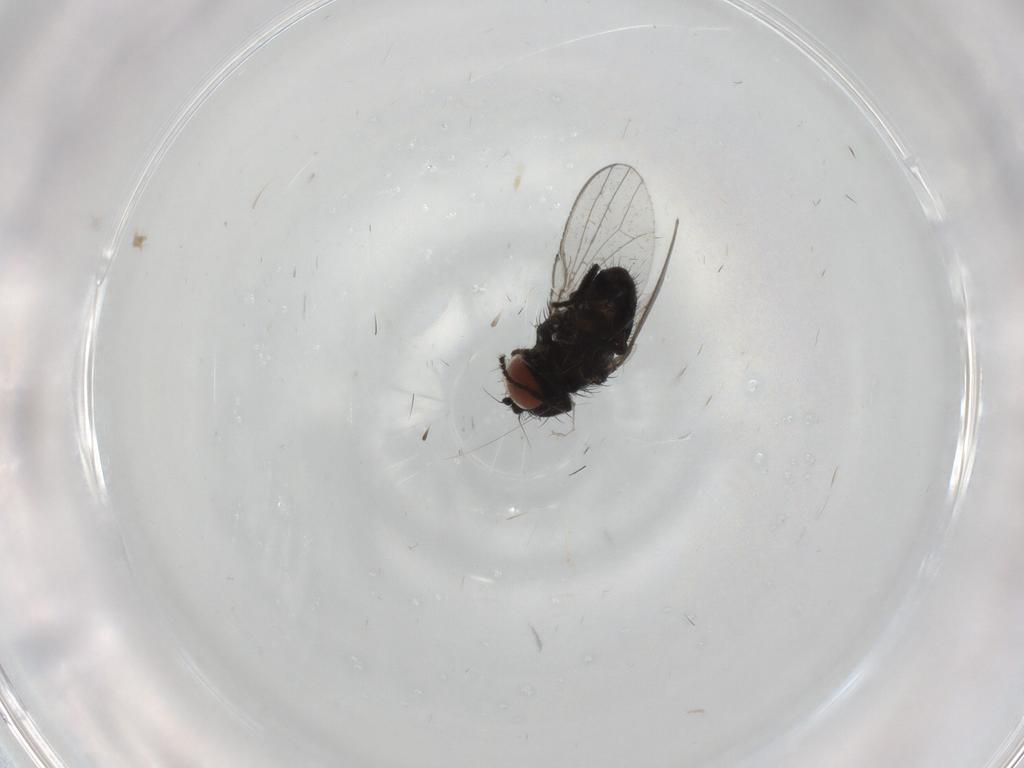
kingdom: Animalia
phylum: Arthropoda
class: Insecta
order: Diptera
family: Milichiidae
